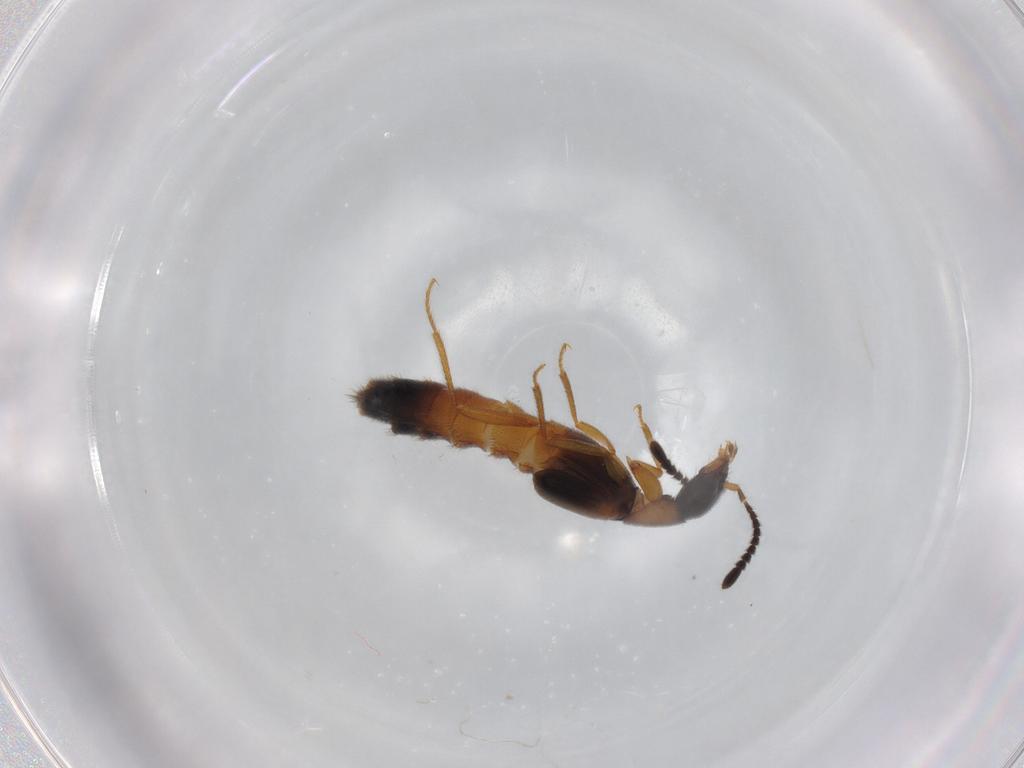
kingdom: Animalia
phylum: Arthropoda
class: Insecta
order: Coleoptera
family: Staphylinidae
